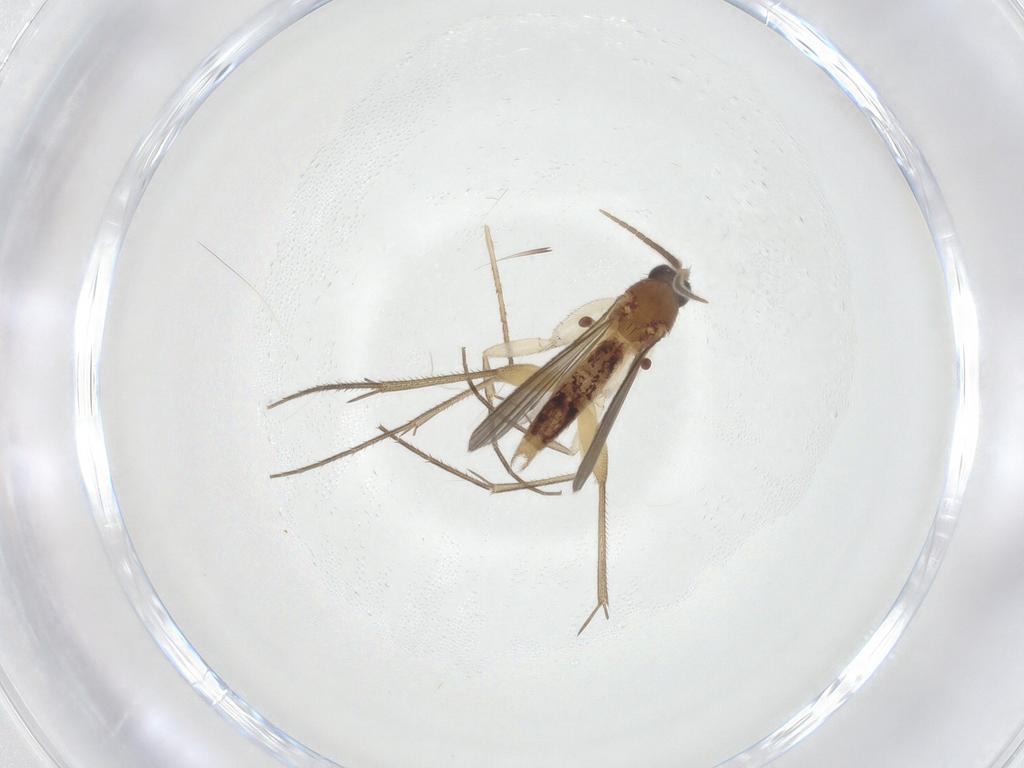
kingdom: Animalia
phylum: Arthropoda
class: Insecta
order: Diptera
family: Mycetophilidae
